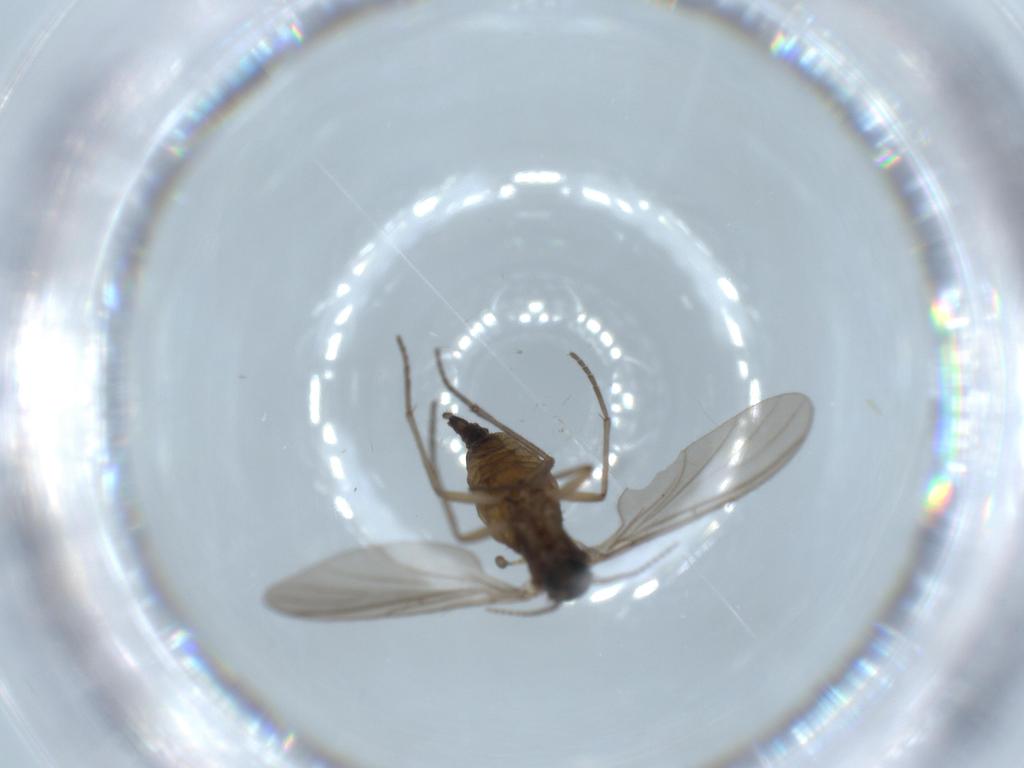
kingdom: Animalia
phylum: Arthropoda
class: Insecta
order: Diptera
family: Sciaridae
